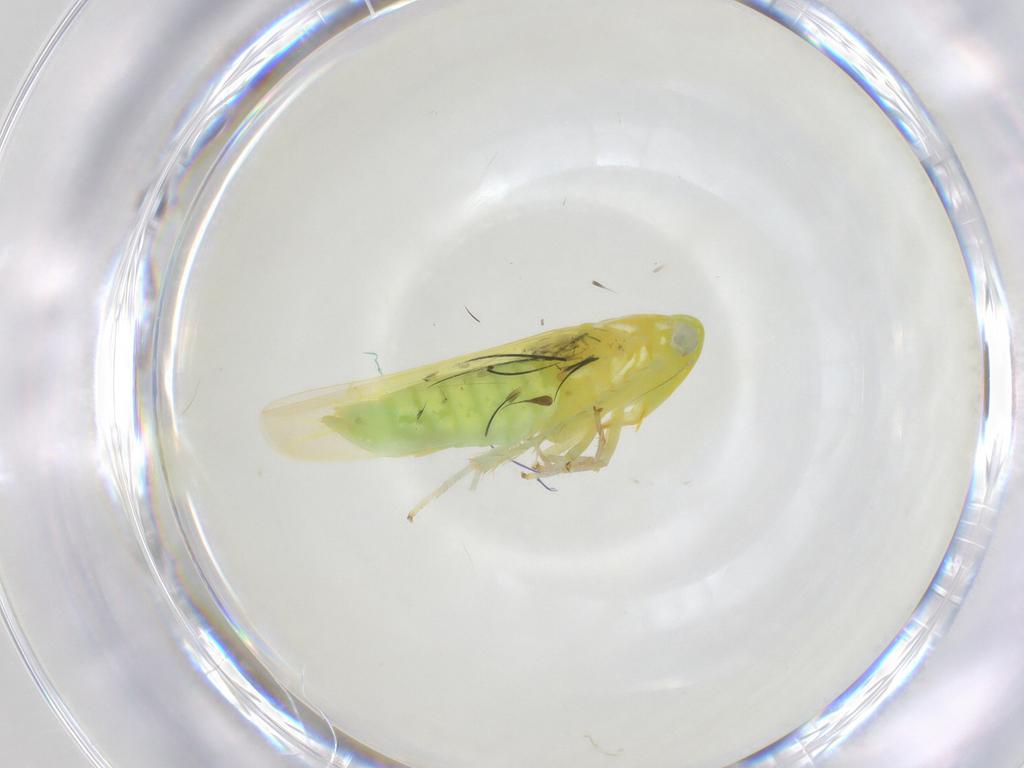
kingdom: Animalia
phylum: Arthropoda
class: Insecta
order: Hemiptera
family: Cicadellidae
